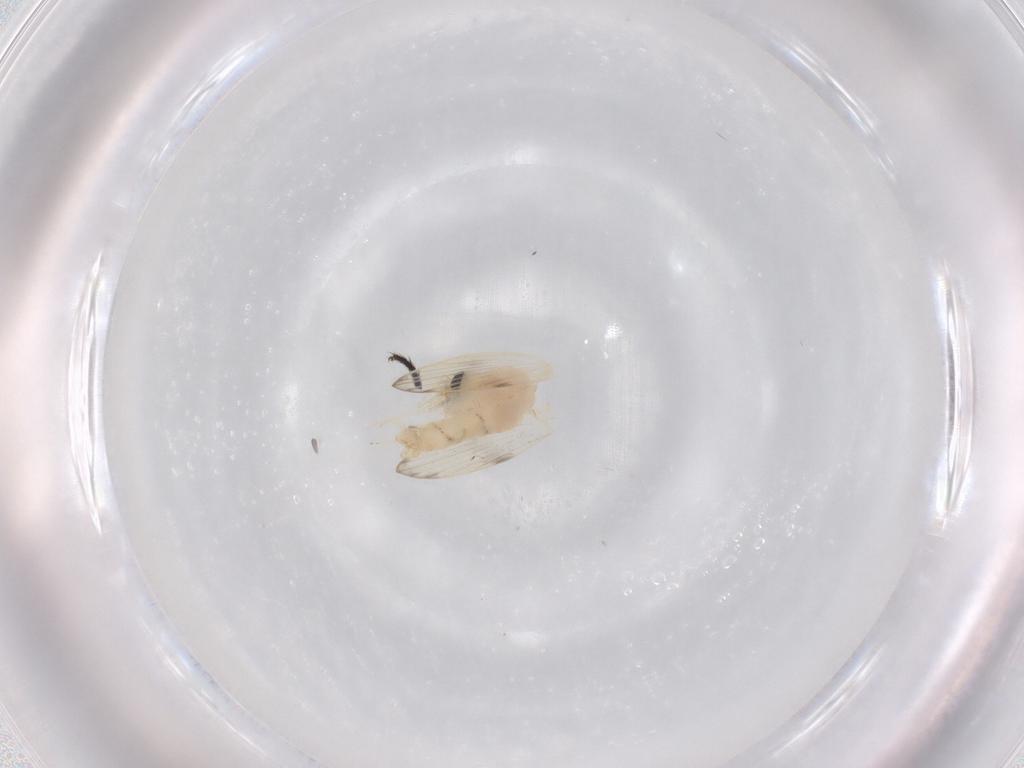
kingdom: Animalia
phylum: Arthropoda
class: Insecta
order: Diptera
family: Psychodidae
